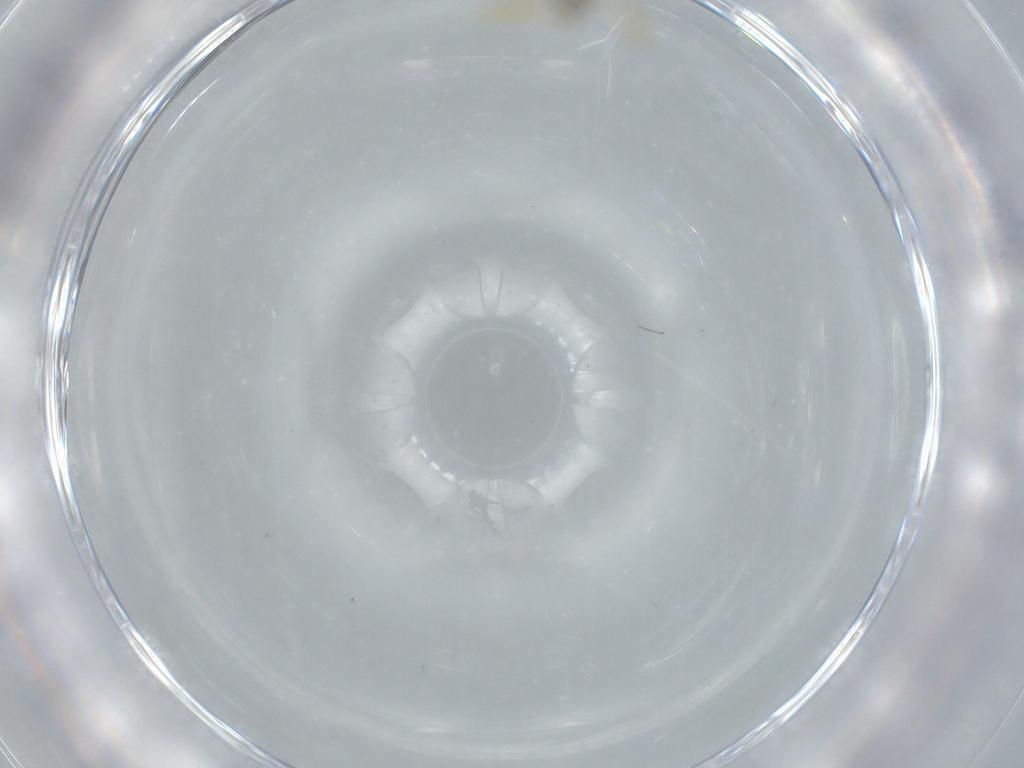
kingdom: Animalia
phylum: Arthropoda
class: Insecta
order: Diptera
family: Chironomidae
